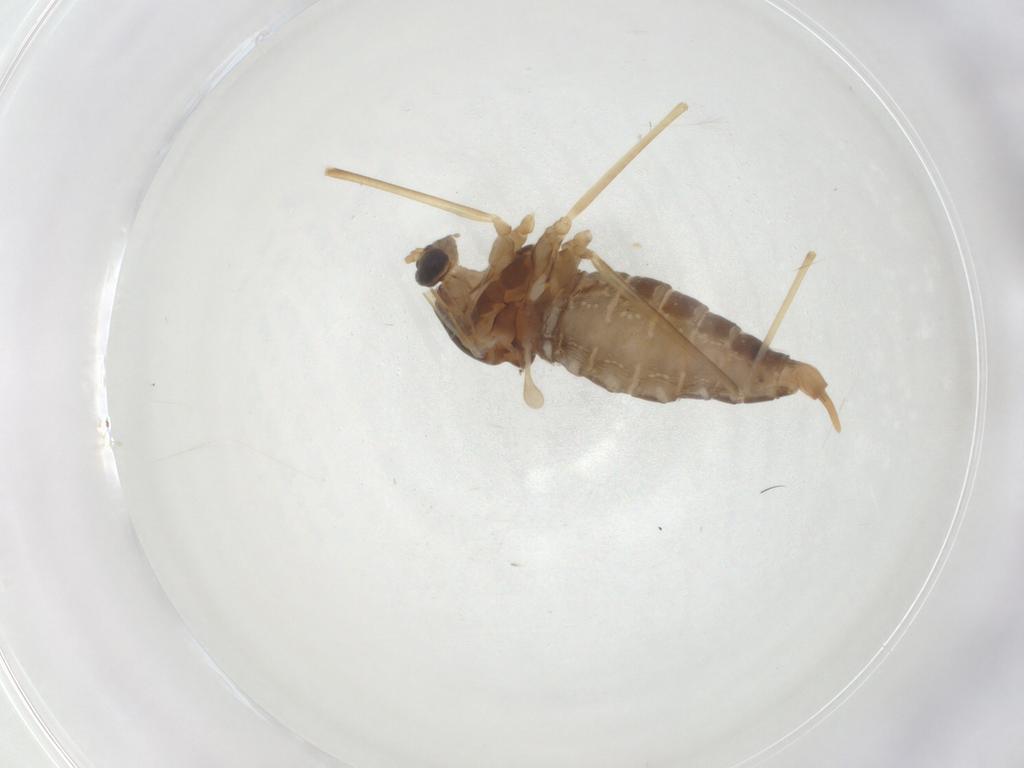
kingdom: Animalia
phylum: Arthropoda
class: Insecta
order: Diptera
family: Cecidomyiidae
